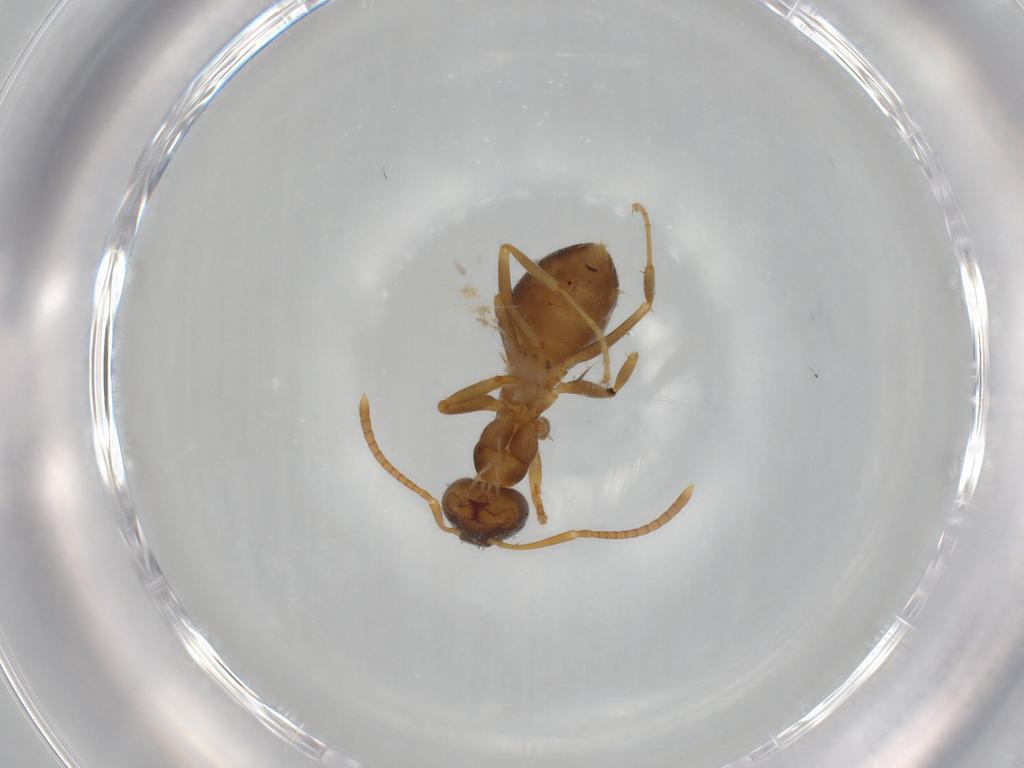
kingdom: Animalia
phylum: Arthropoda
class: Insecta
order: Hymenoptera
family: Formicidae
